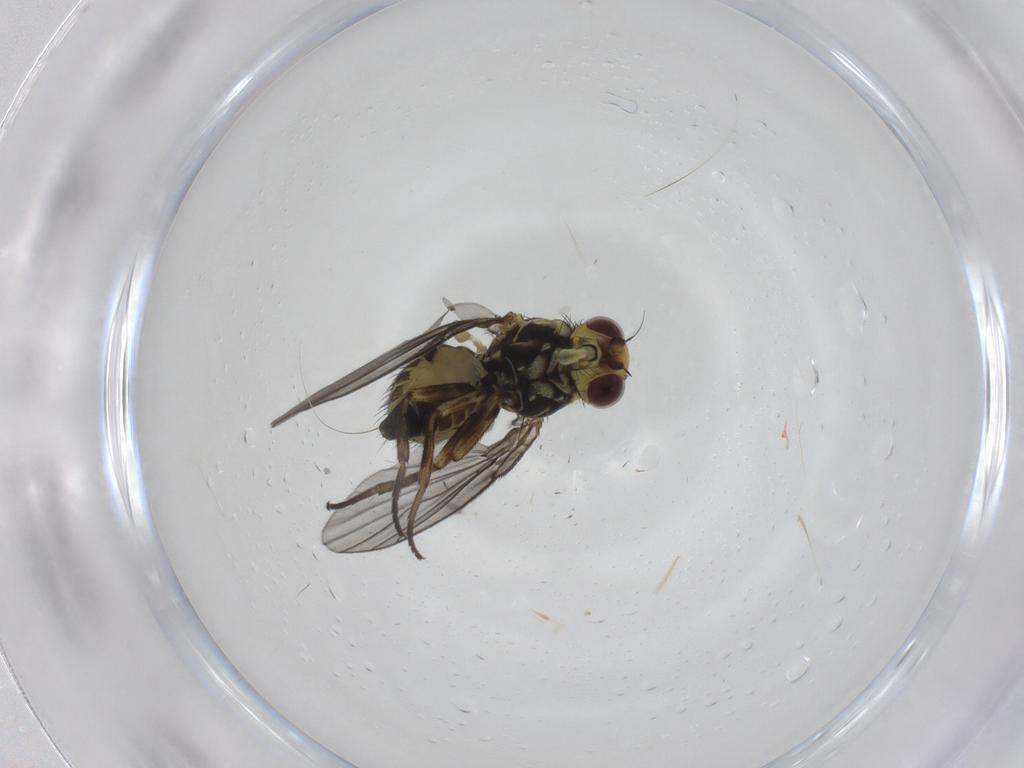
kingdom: Animalia
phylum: Arthropoda
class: Insecta
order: Diptera
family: Agromyzidae
